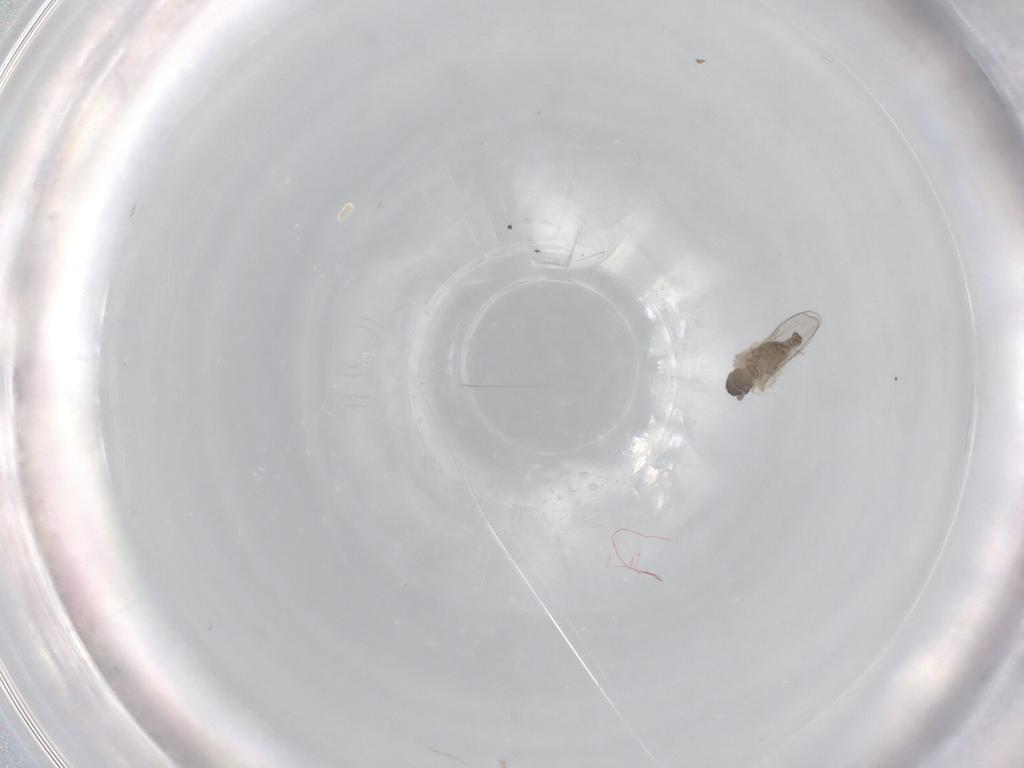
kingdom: Animalia
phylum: Arthropoda
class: Insecta
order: Diptera
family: Cecidomyiidae
